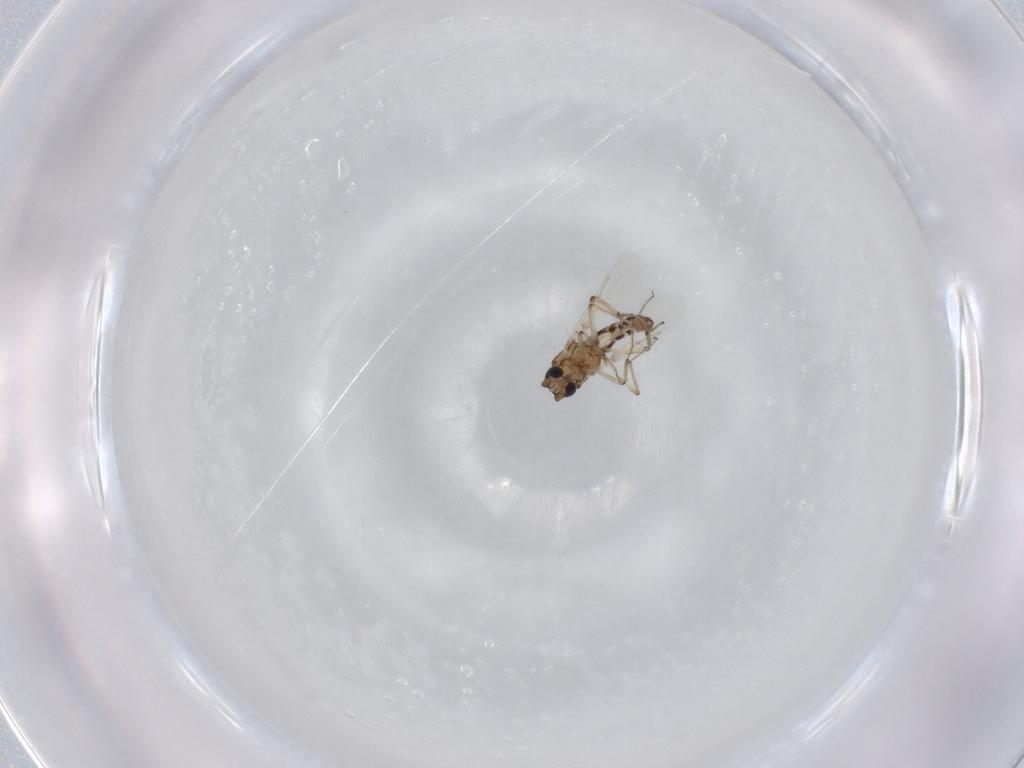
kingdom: Animalia
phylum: Arthropoda
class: Insecta
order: Diptera
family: Ceratopogonidae
